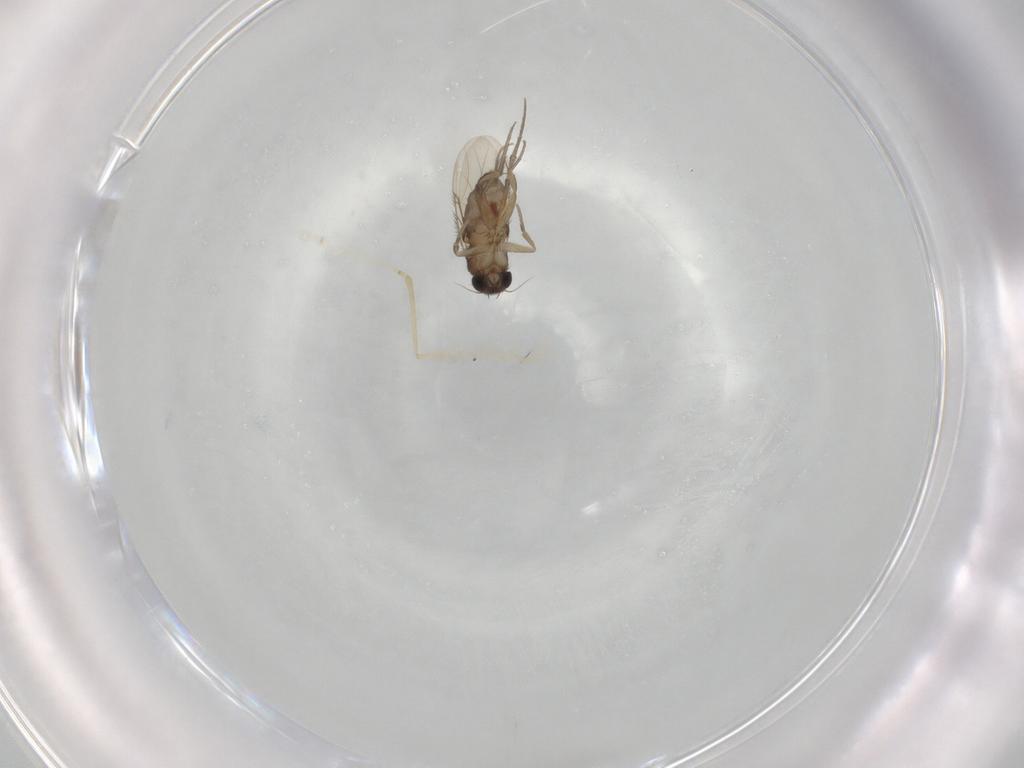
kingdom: Animalia
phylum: Arthropoda
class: Insecta
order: Diptera
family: Phoridae
